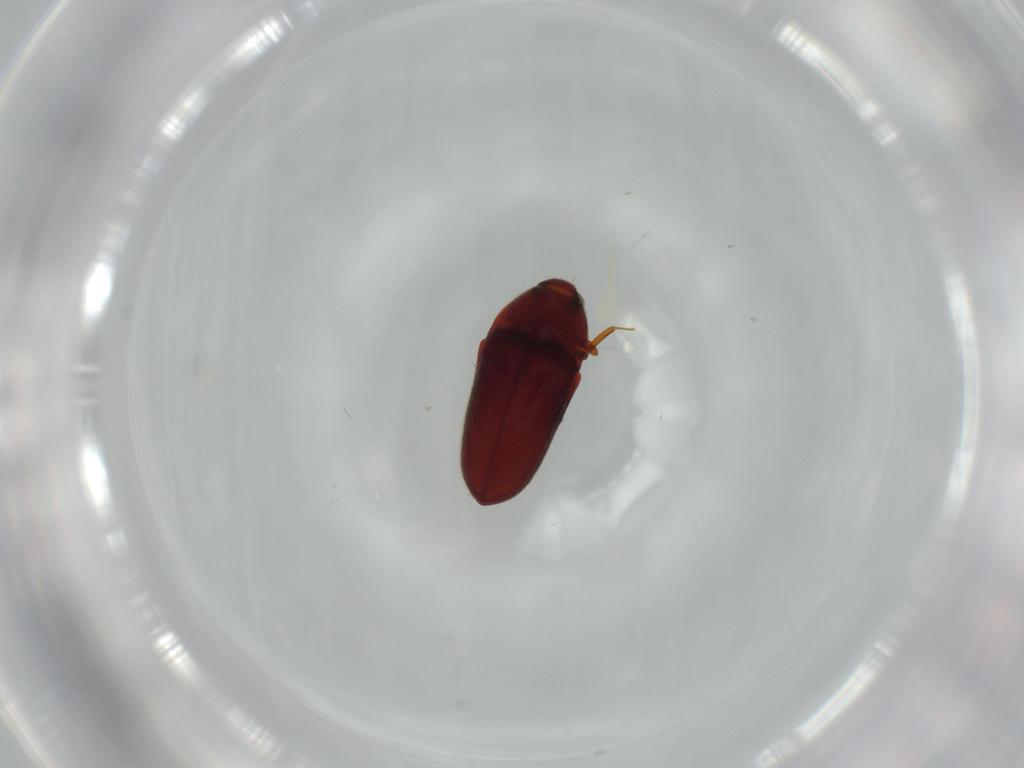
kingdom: Animalia
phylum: Arthropoda
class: Insecta
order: Coleoptera
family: Throscidae
